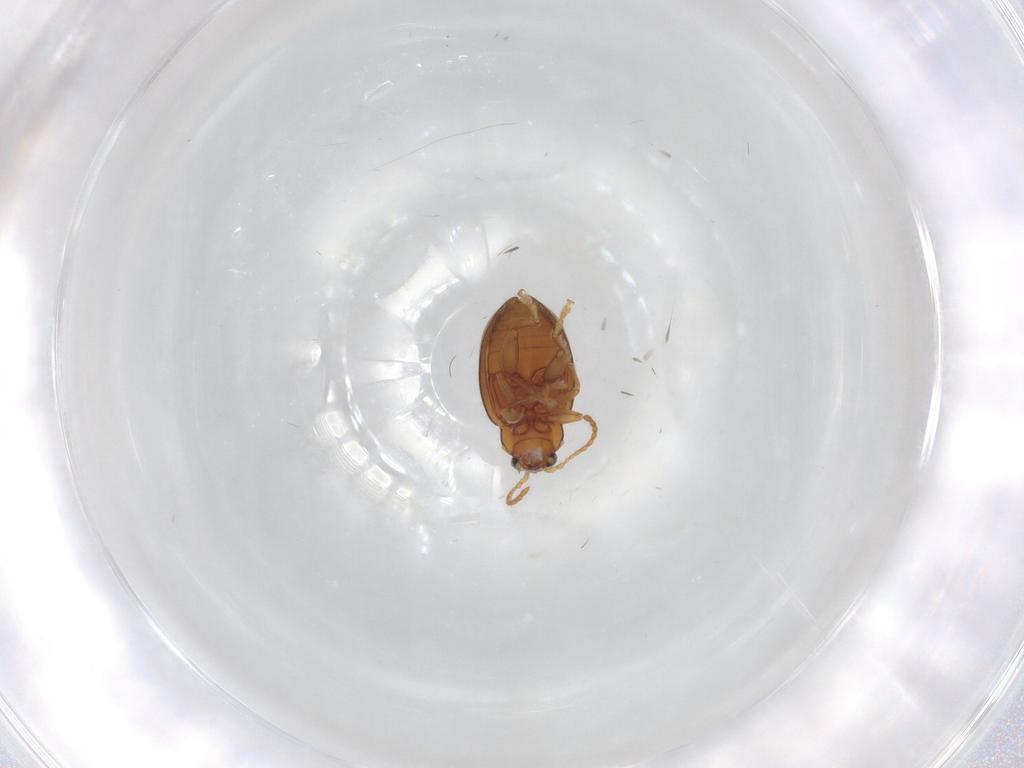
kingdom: Animalia
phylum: Arthropoda
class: Insecta
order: Coleoptera
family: Chrysomelidae
